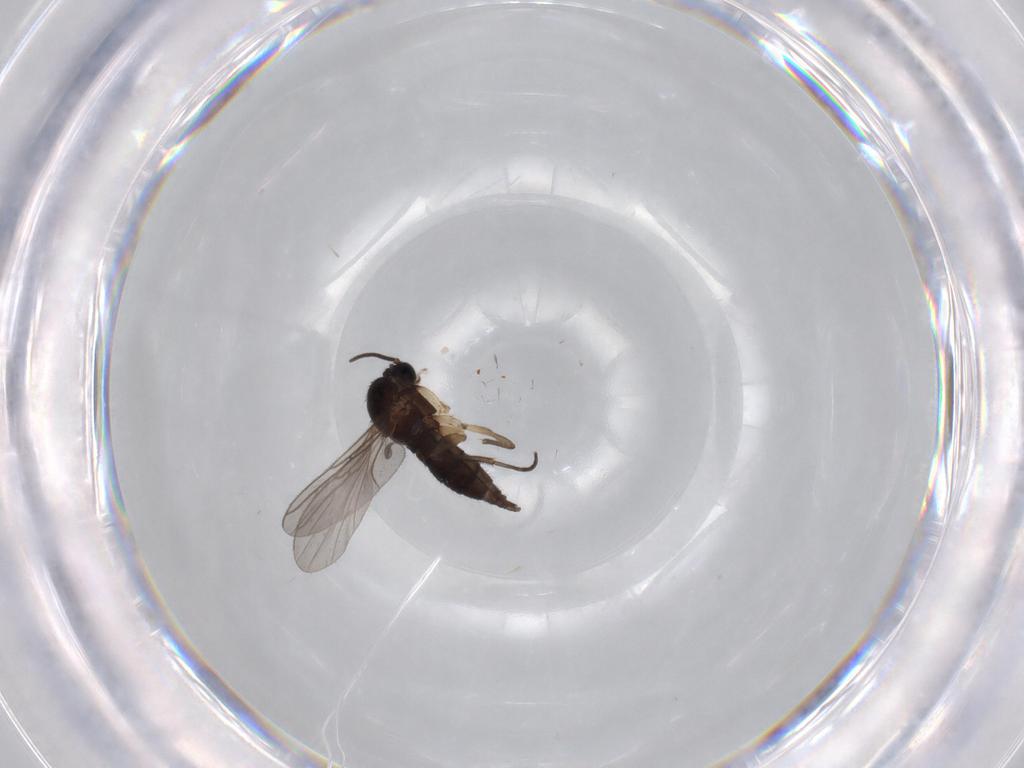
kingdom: Animalia
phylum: Arthropoda
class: Insecta
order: Diptera
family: Sciaridae
